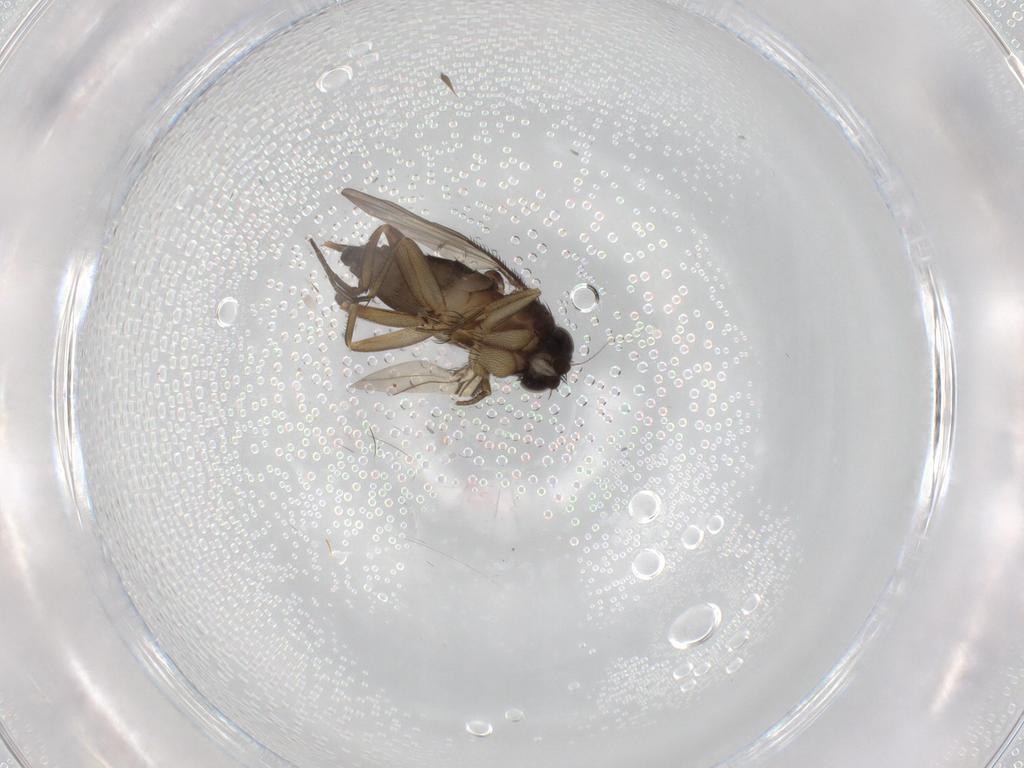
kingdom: Animalia
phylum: Arthropoda
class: Insecta
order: Diptera
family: Phoridae
